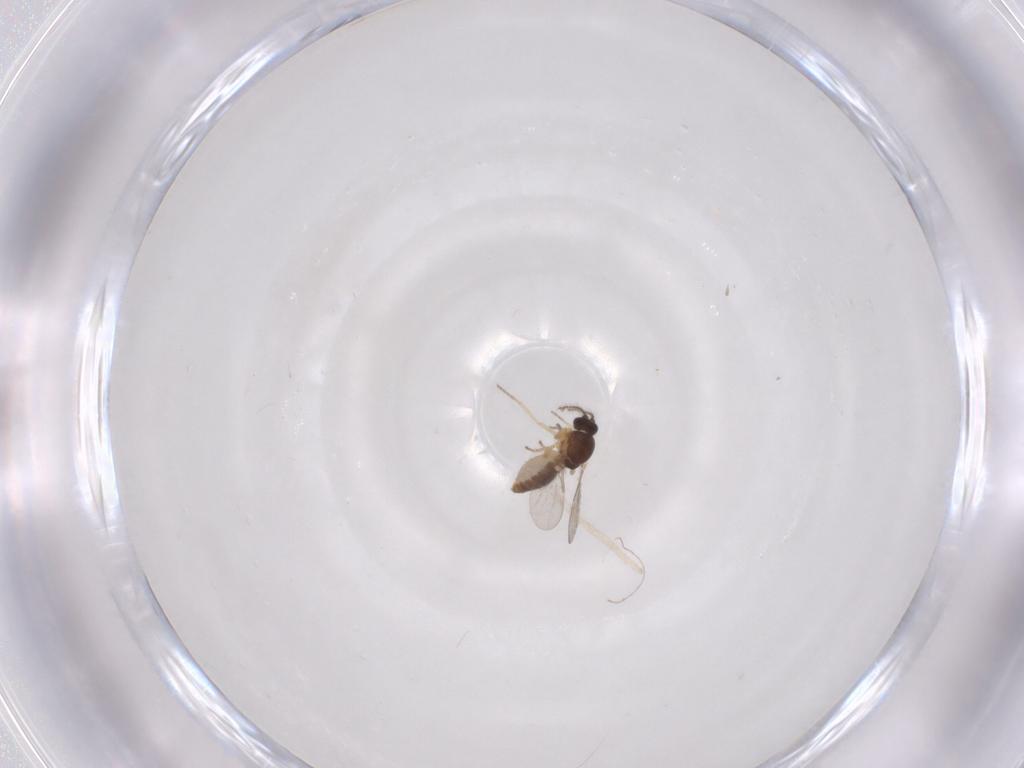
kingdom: Animalia
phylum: Arthropoda
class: Insecta
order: Diptera
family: Ceratopogonidae
